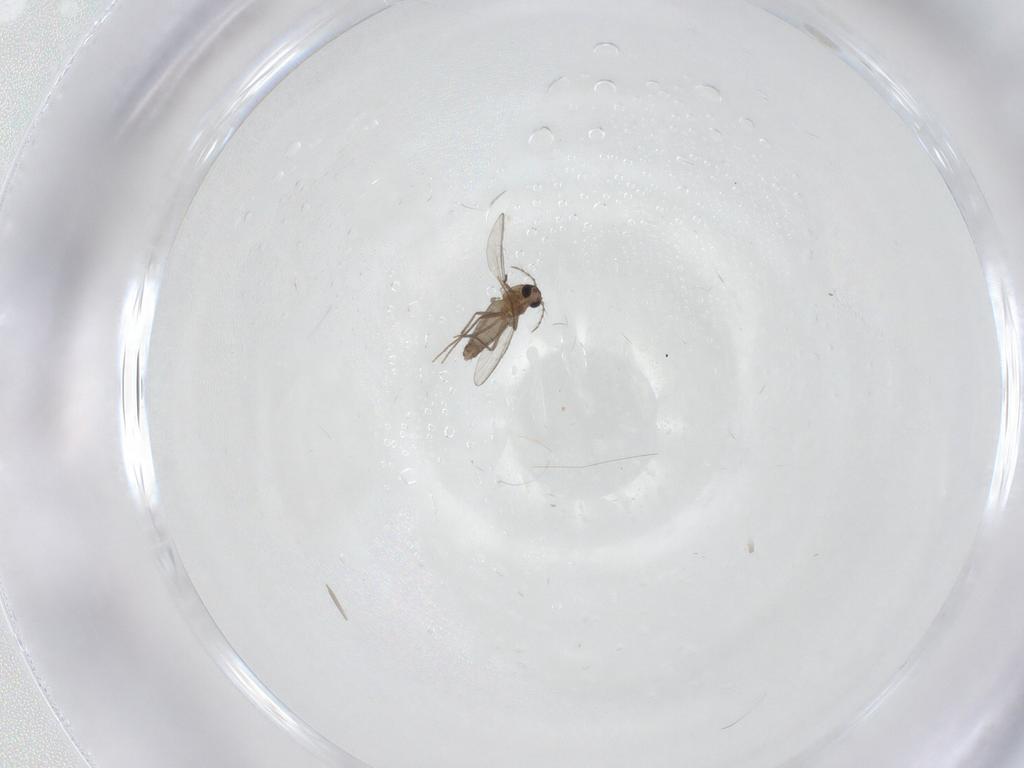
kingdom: Animalia
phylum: Arthropoda
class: Insecta
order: Diptera
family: Chironomidae
